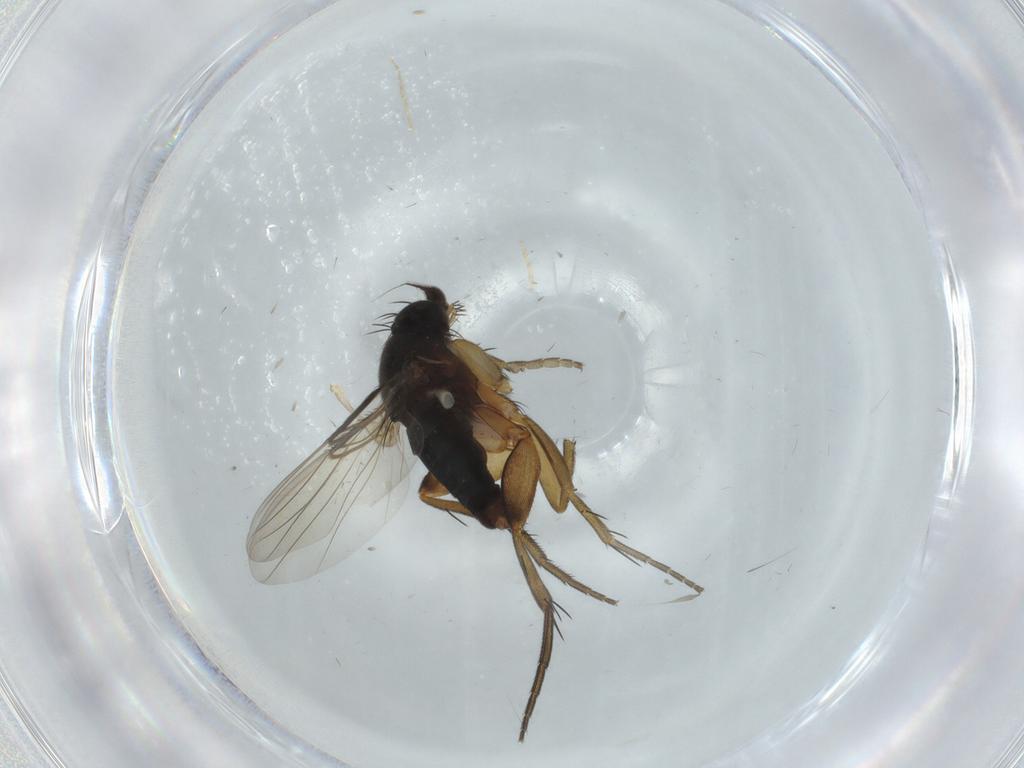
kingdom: Animalia
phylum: Arthropoda
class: Insecta
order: Diptera
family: Phoridae
